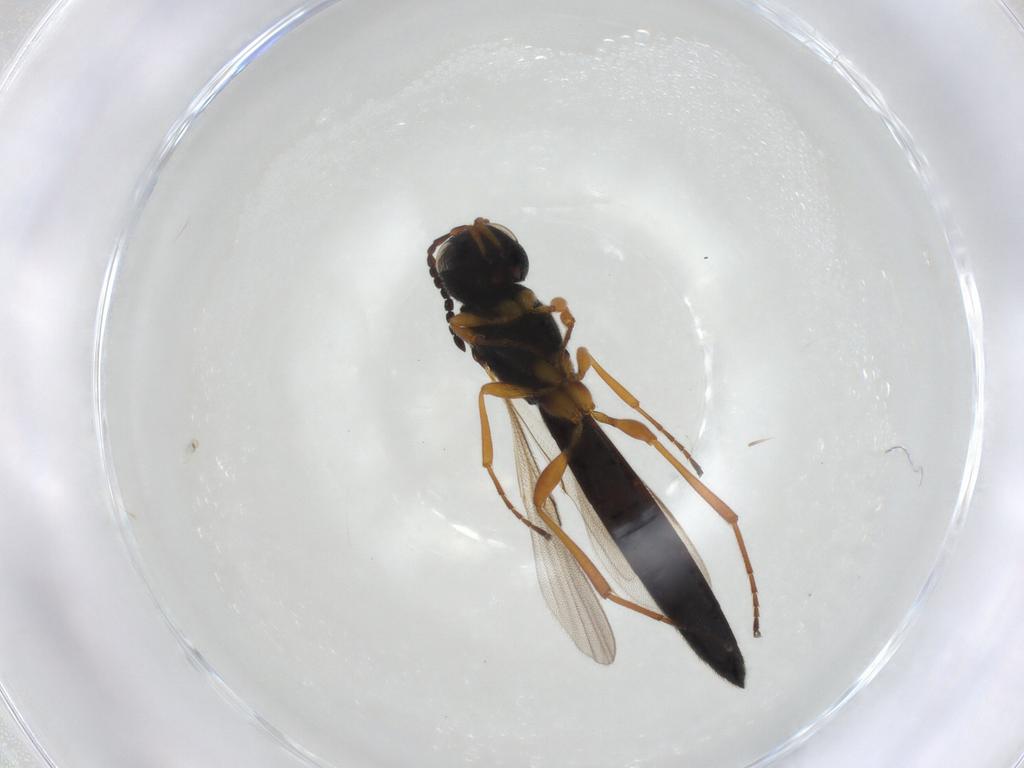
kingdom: Animalia
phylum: Arthropoda
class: Insecta
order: Hymenoptera
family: Scelionidae
